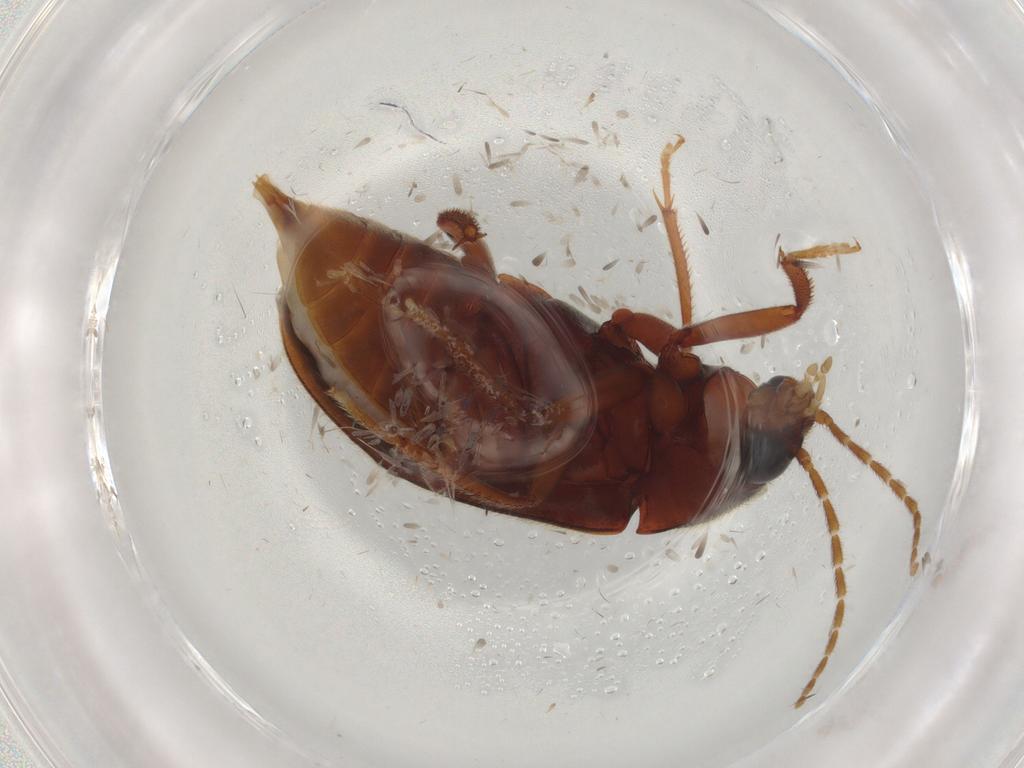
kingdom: Animalia
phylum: Arthropoda
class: Insecta
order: Coleoptera
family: Ptilodactylidae
